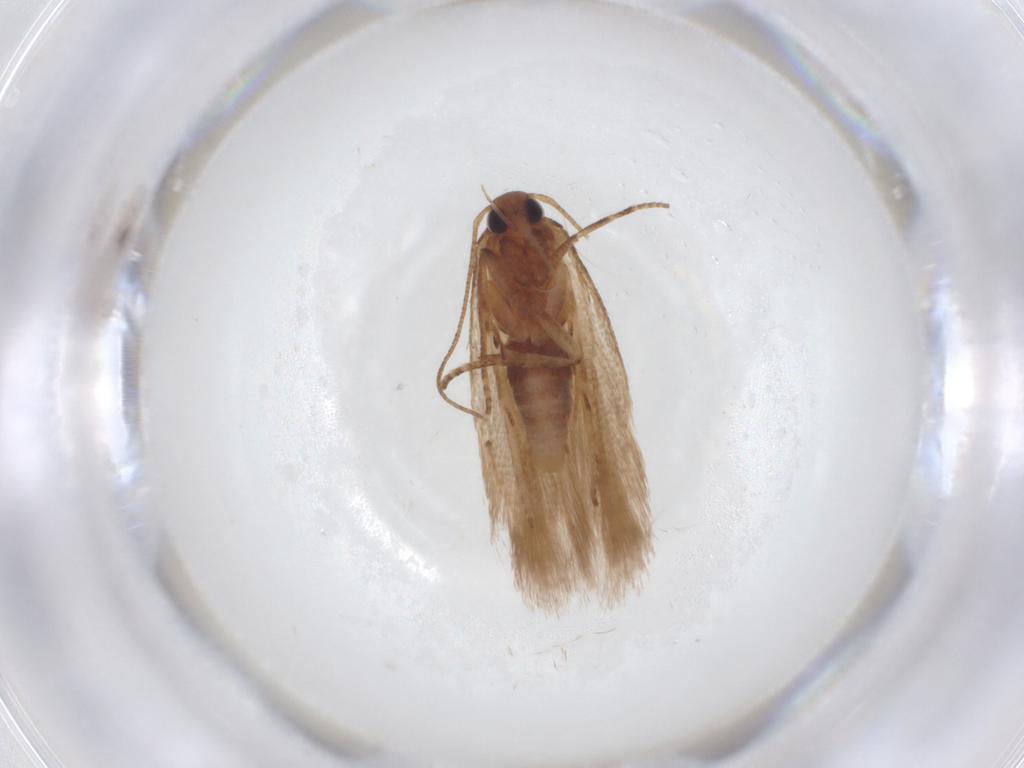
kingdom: Animalia
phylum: Arthropoda
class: Insecta
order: Lepidoptera
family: Gelechiidae
